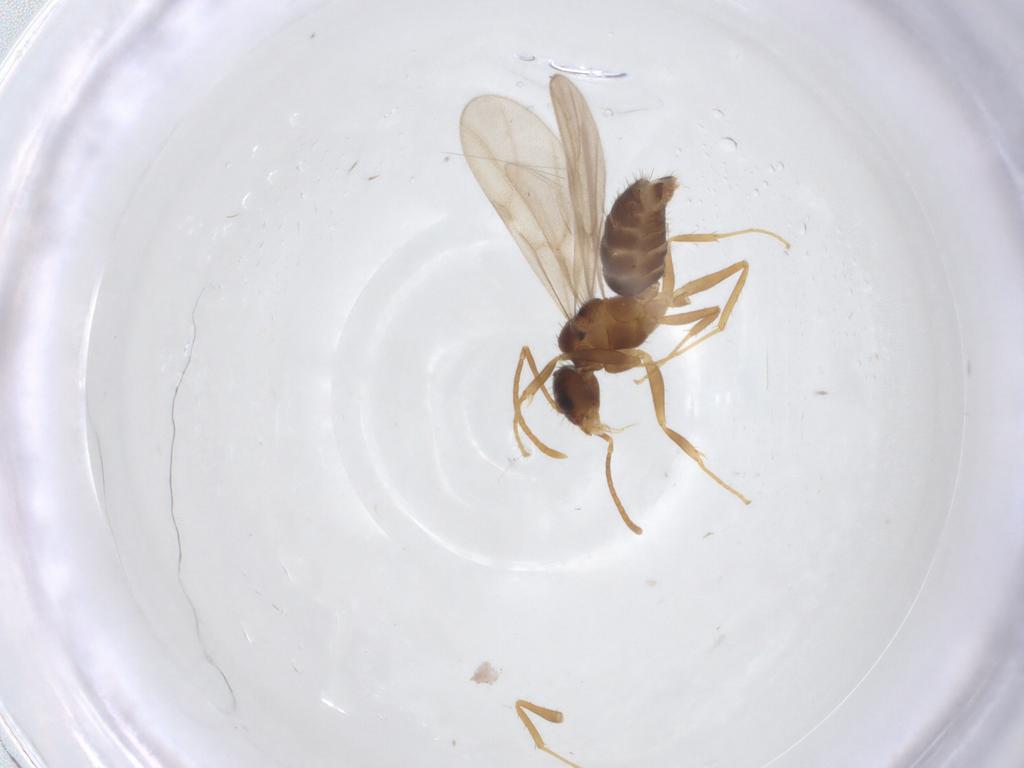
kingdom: Animalia
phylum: Arthropoda
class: Insecta
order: Hymenoptera
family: Formicidae
